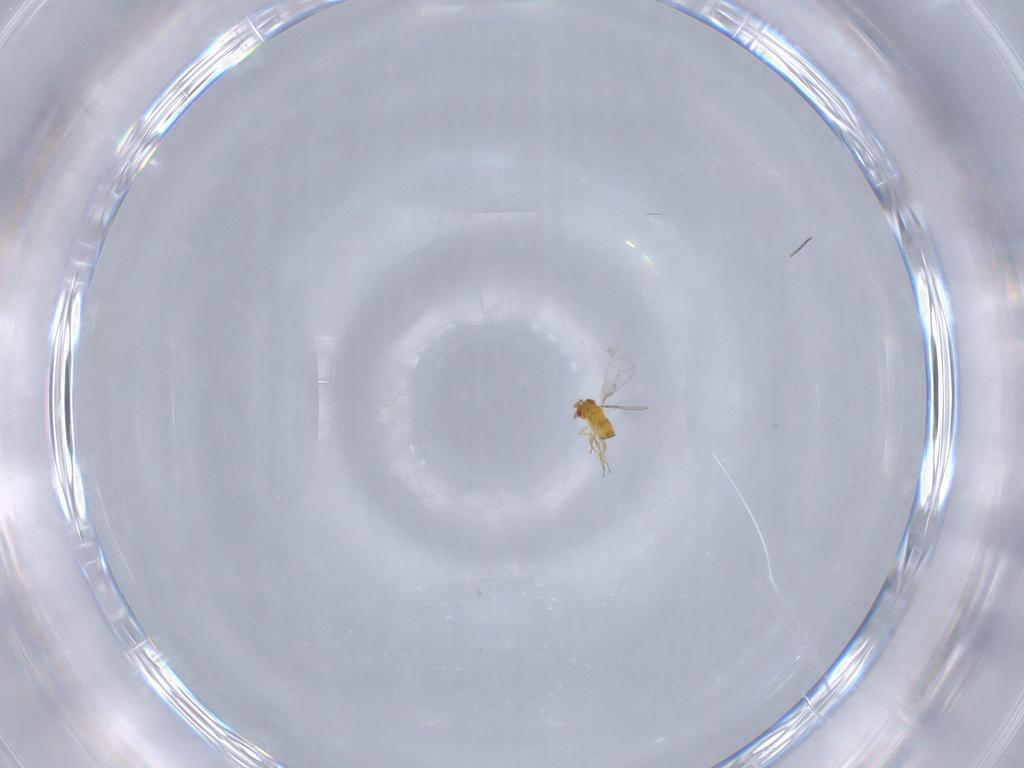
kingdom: Animalia
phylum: Arthropoda
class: Insecta
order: Hymenoptera
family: Trichogrammatidae
